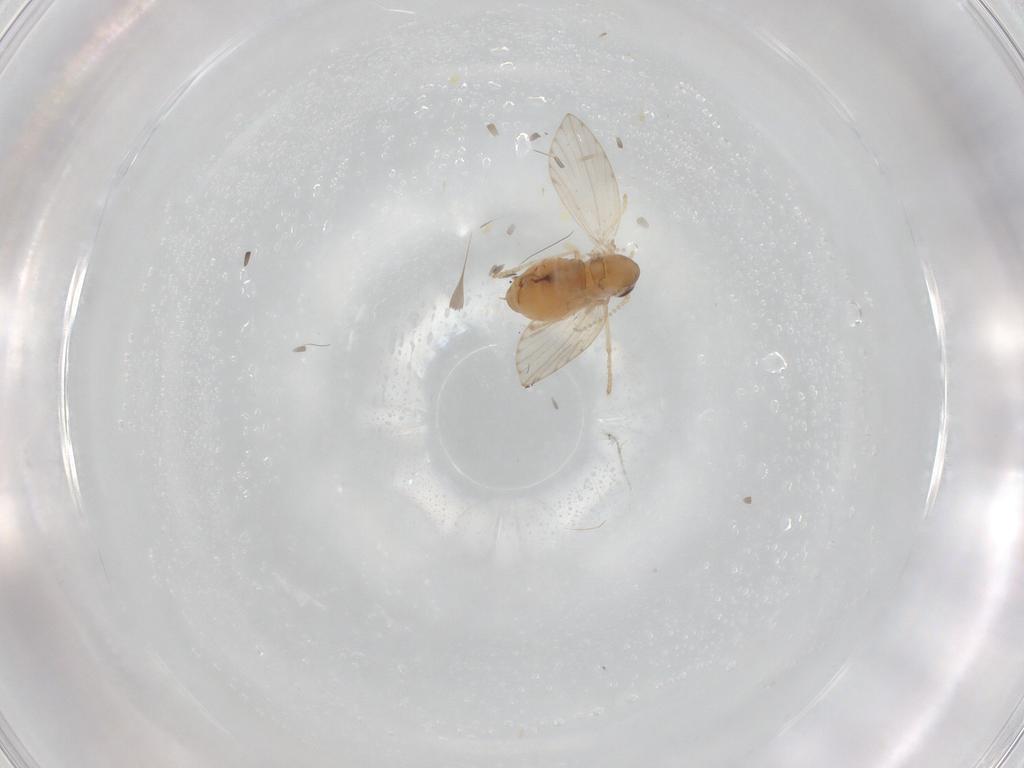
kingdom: Animalia
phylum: Arthropoda
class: Insecta
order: Diptera
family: Psychodidae
